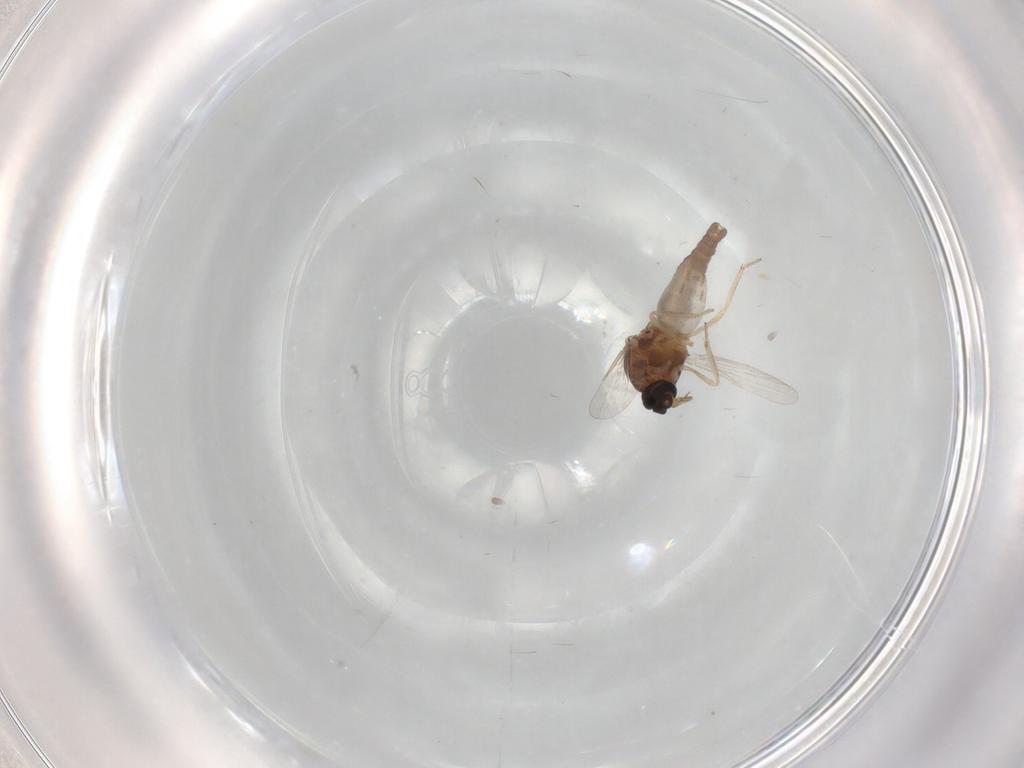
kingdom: Animalia
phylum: Arthropoda
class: Insecta
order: Diptera
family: Ceratopogonidae
